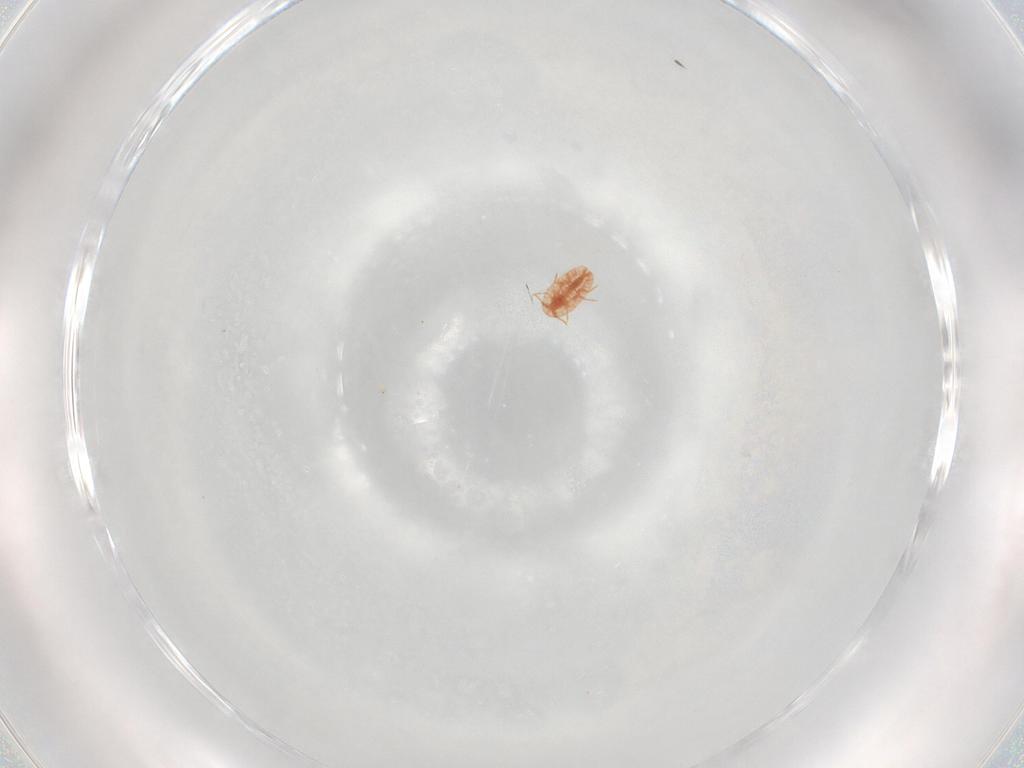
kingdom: Animalia
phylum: Arthropoda
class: Insecta
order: Hemiptera
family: Coccidae
